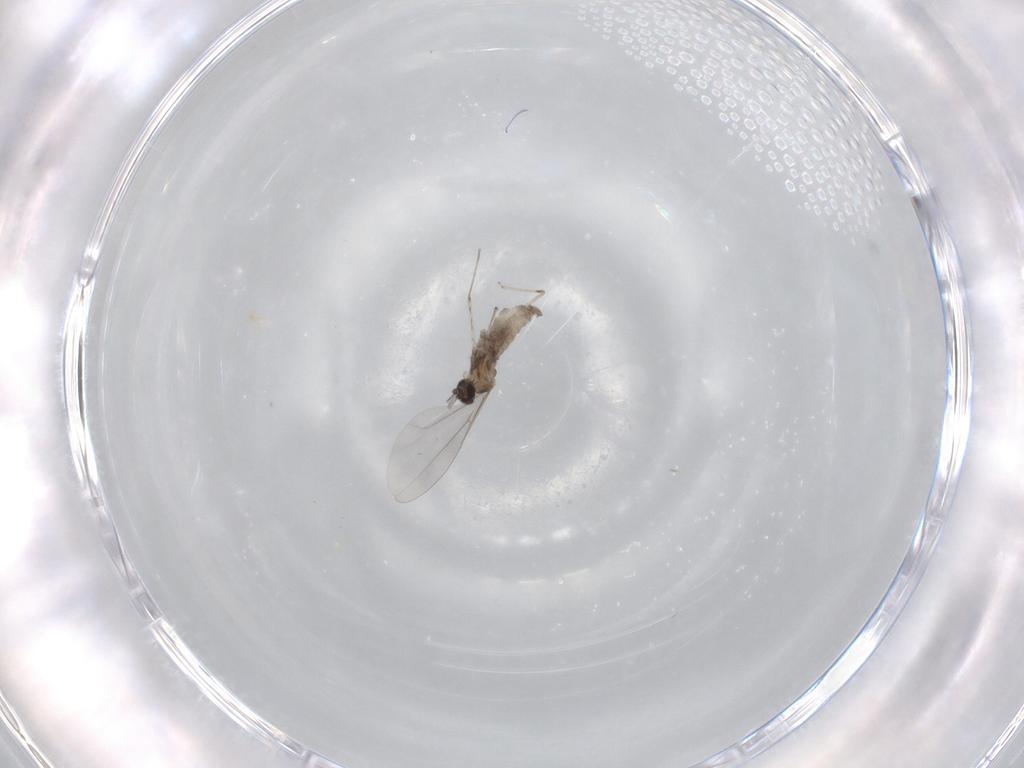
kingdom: Animalia
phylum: Arthropoda
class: Insecta
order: Diptera
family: Cecidomyiidae
